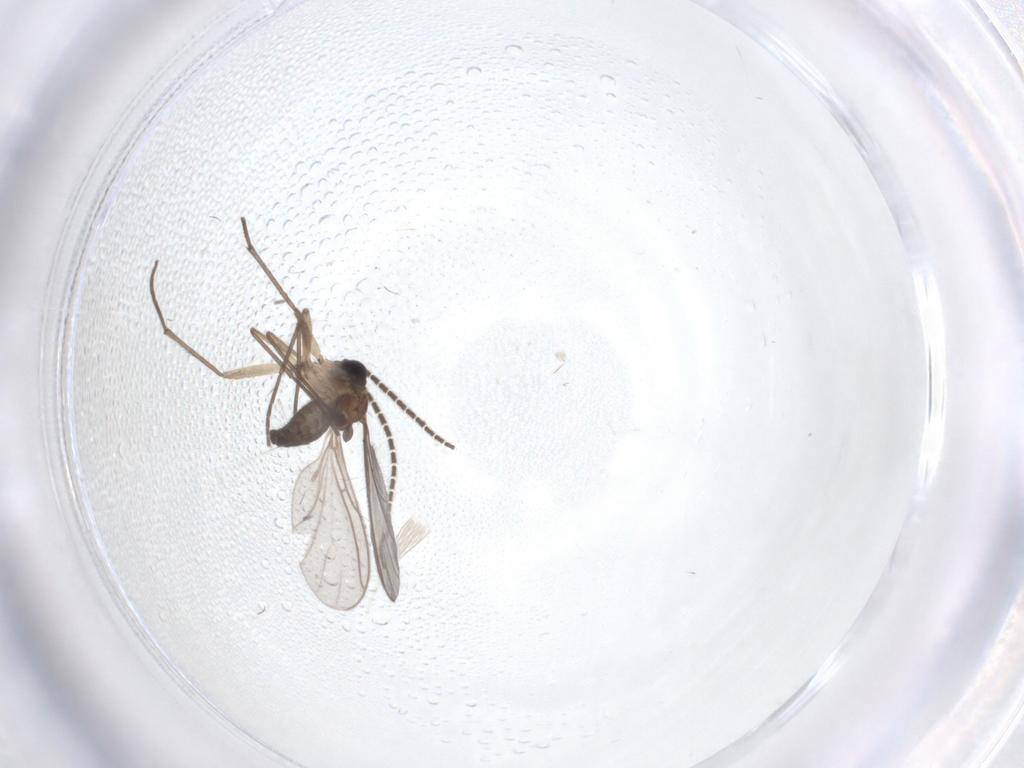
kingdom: Animalia
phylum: Arthropoda
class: Insecta
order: Diptera
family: Sciaridae
